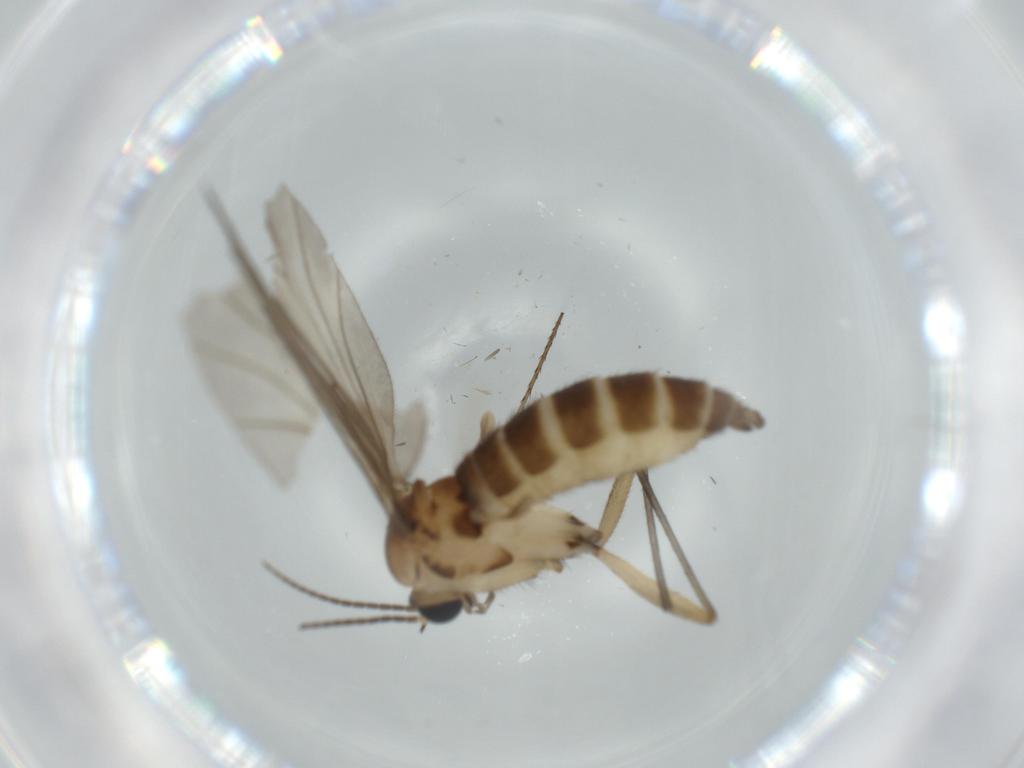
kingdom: Animalia
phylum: Arthropoda
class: Insecta
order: Diptera
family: Sciaridae
